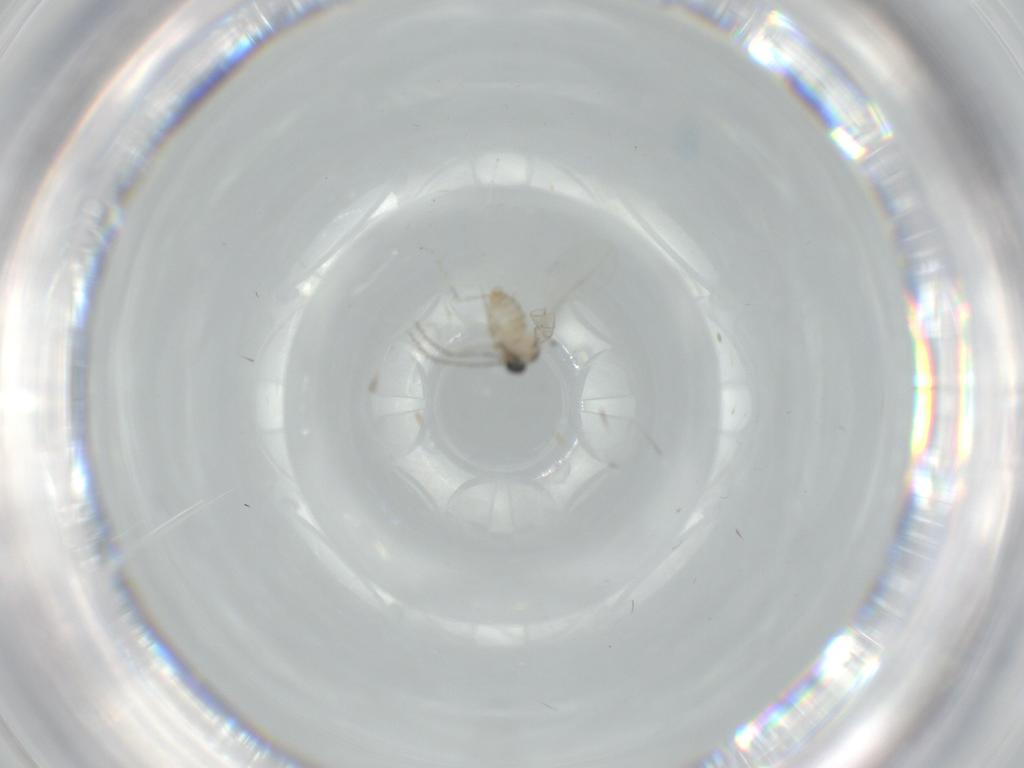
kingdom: Animalia
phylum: Arthropoda
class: Insecta
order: Diptera
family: Cecidomyiidae
